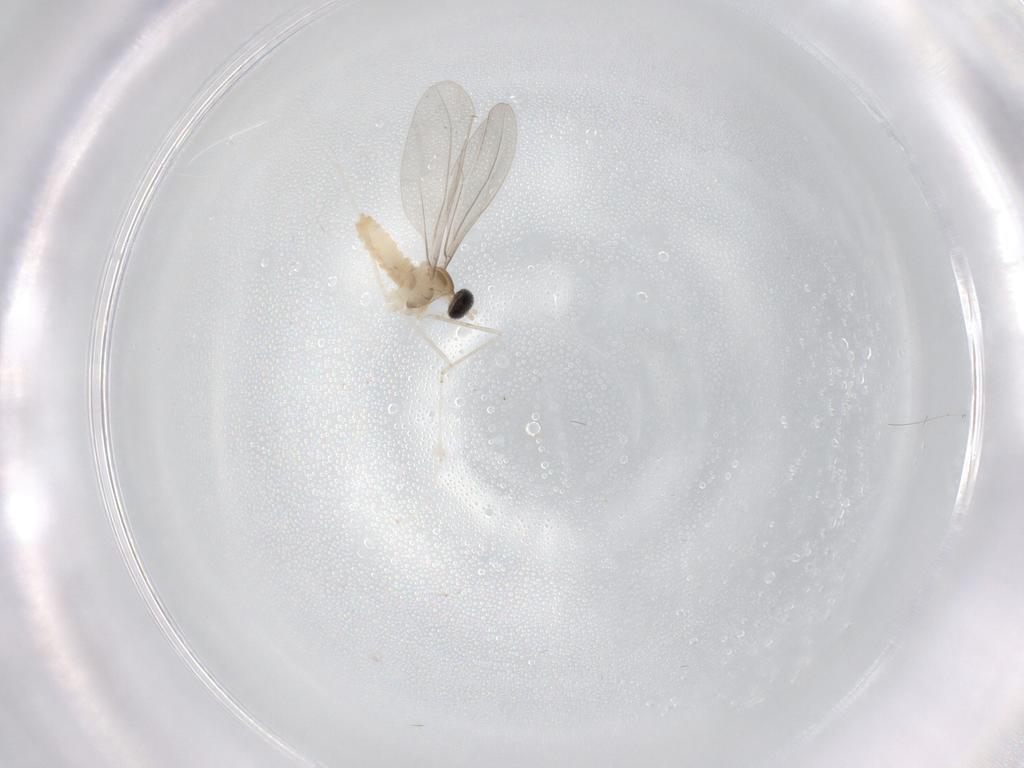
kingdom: Animalia
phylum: Arthropoda
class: Insecta
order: Diptera
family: Cecidomyiidae
